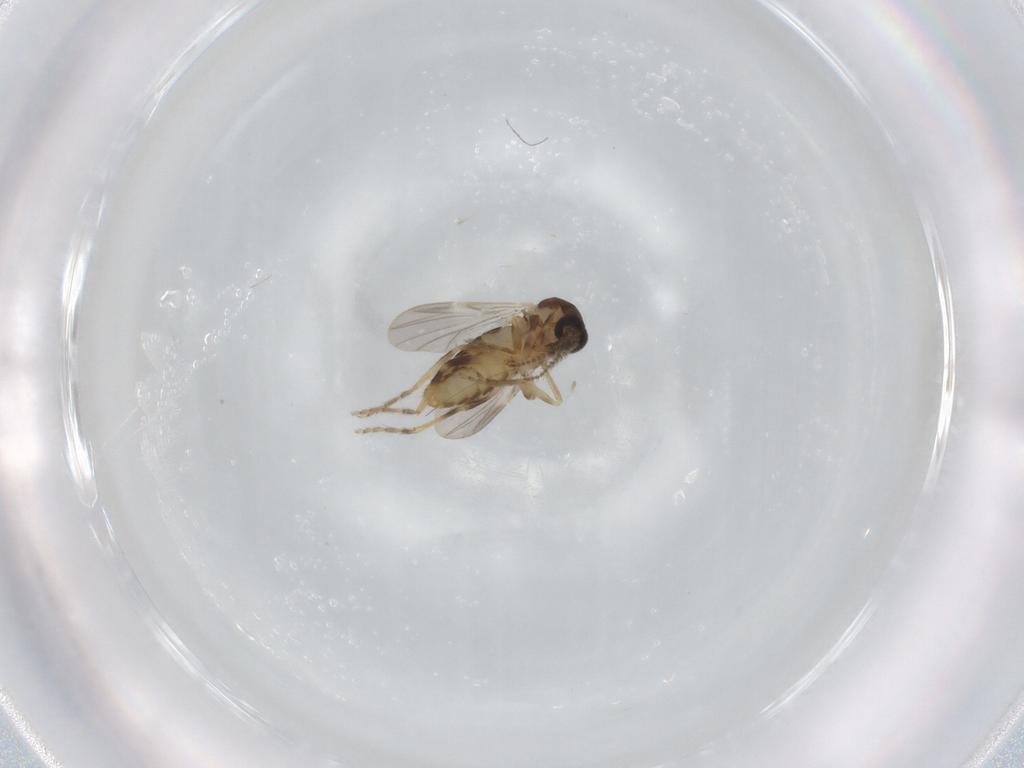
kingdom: Animalia
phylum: Arthropoda
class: Insecta
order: Diptera
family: Ceratopogonidae
